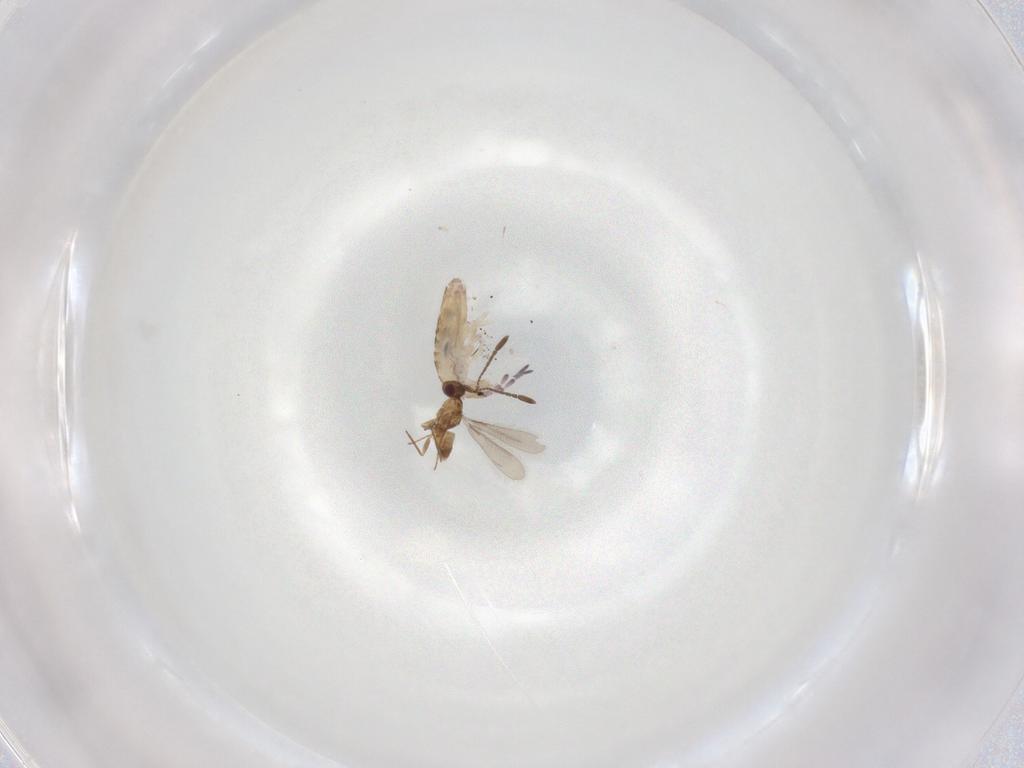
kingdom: Animalia
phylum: Arthropoda
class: Collembola
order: Entomobryomorpha
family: Entomobryidae
